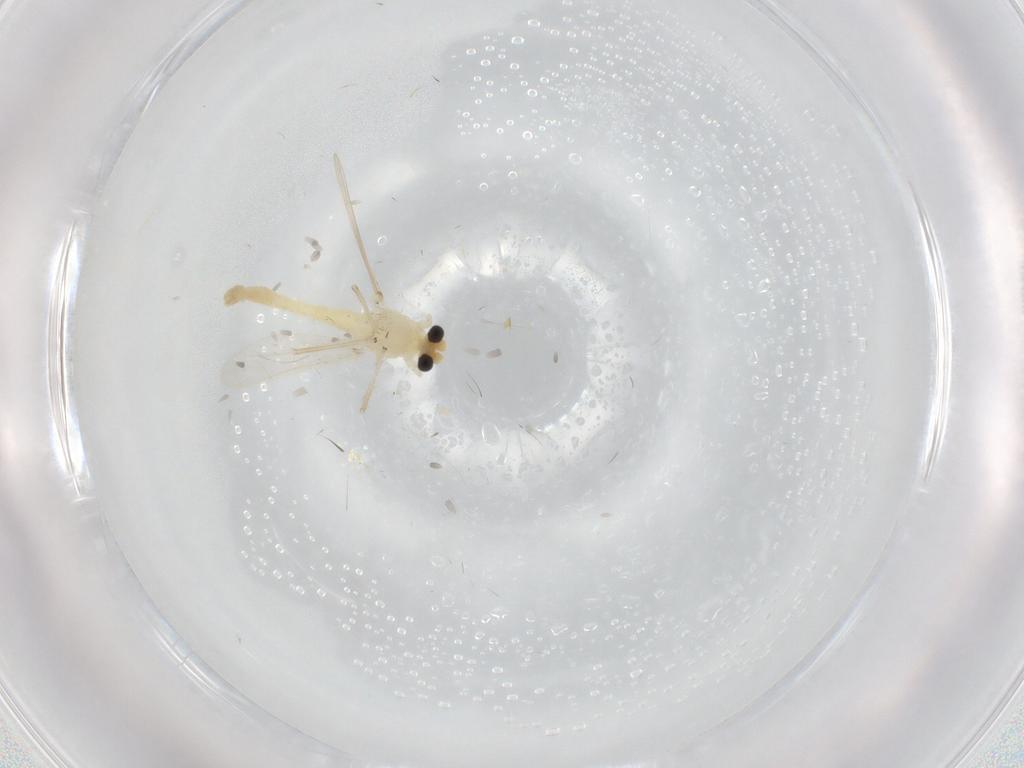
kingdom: Animalia
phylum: Arthropoda
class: Insecta
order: Diptera
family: Chironomidae
